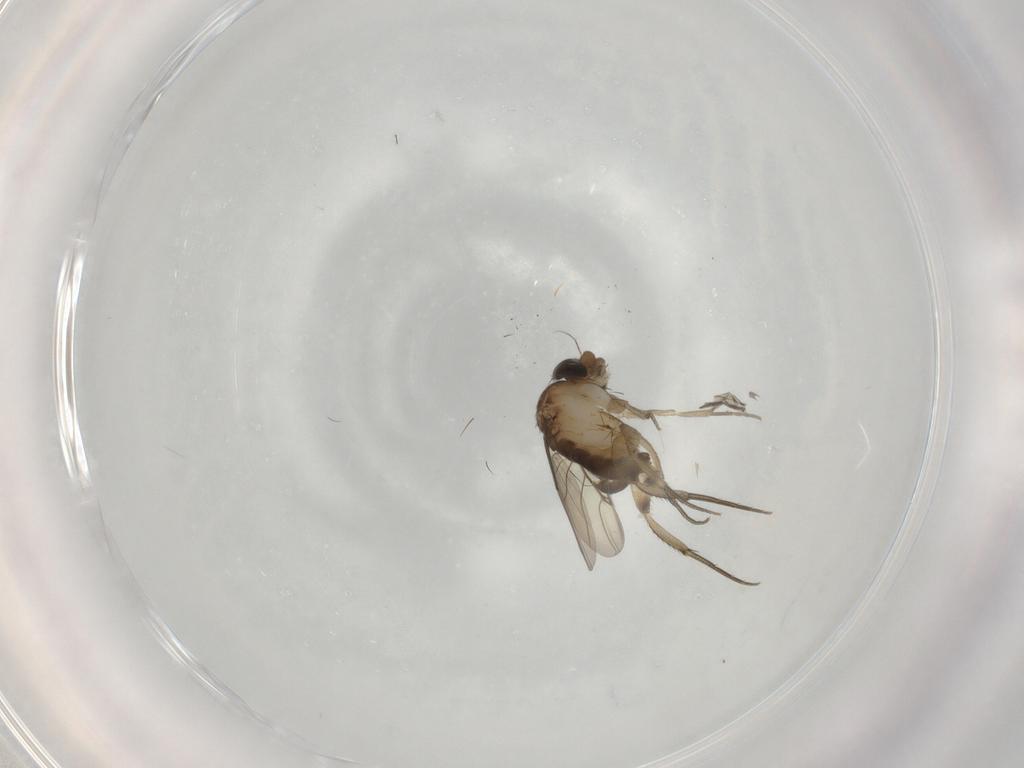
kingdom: Animalia
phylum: Arthropoda
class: Insecta
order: Diptera
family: Phoridae
